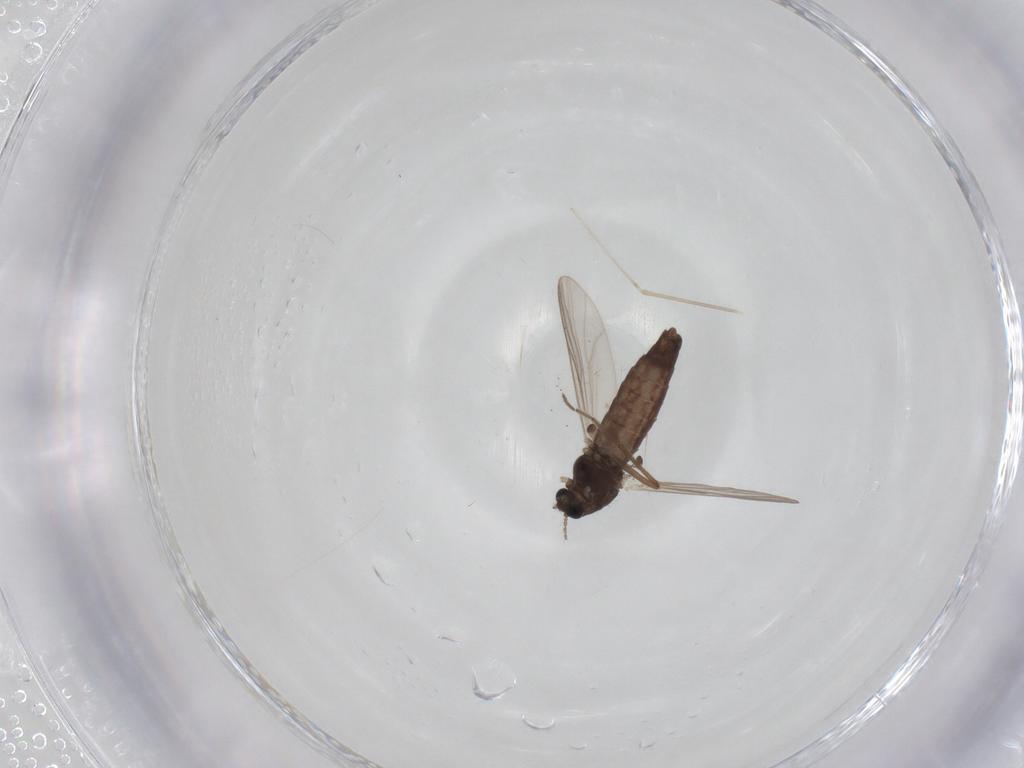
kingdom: Animalia
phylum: Arthropoda
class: Insecta
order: Diptera
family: Chironomidae
